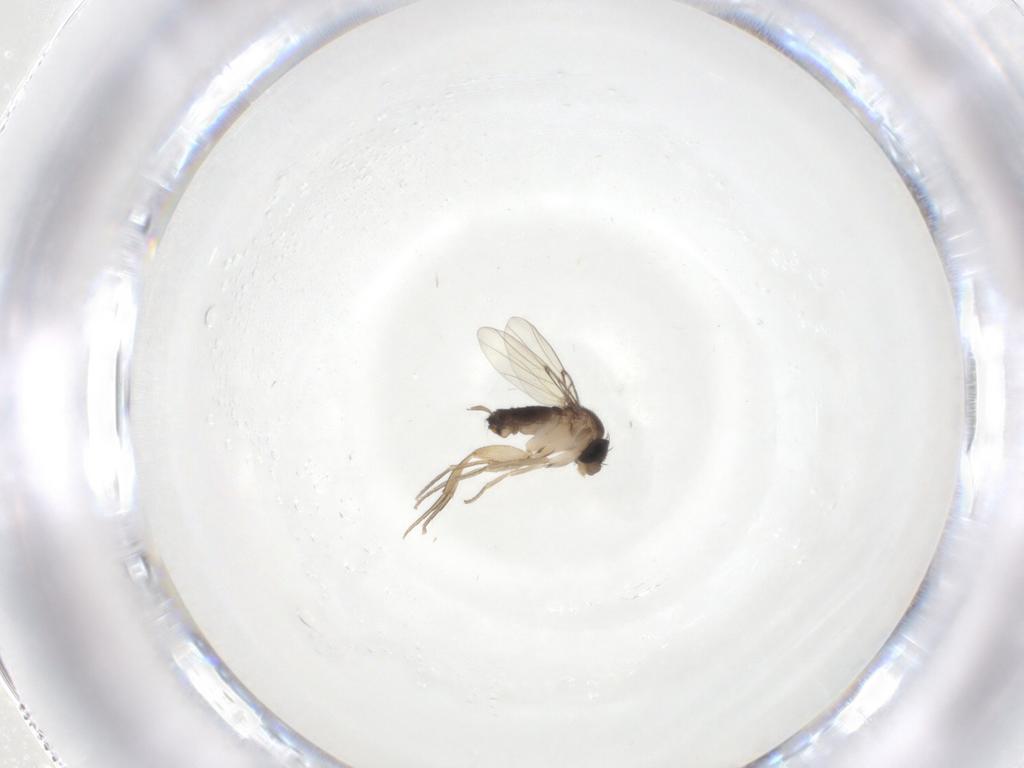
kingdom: Animalia
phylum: Arthropoda
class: Insecta
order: Diptera
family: Phoridae
